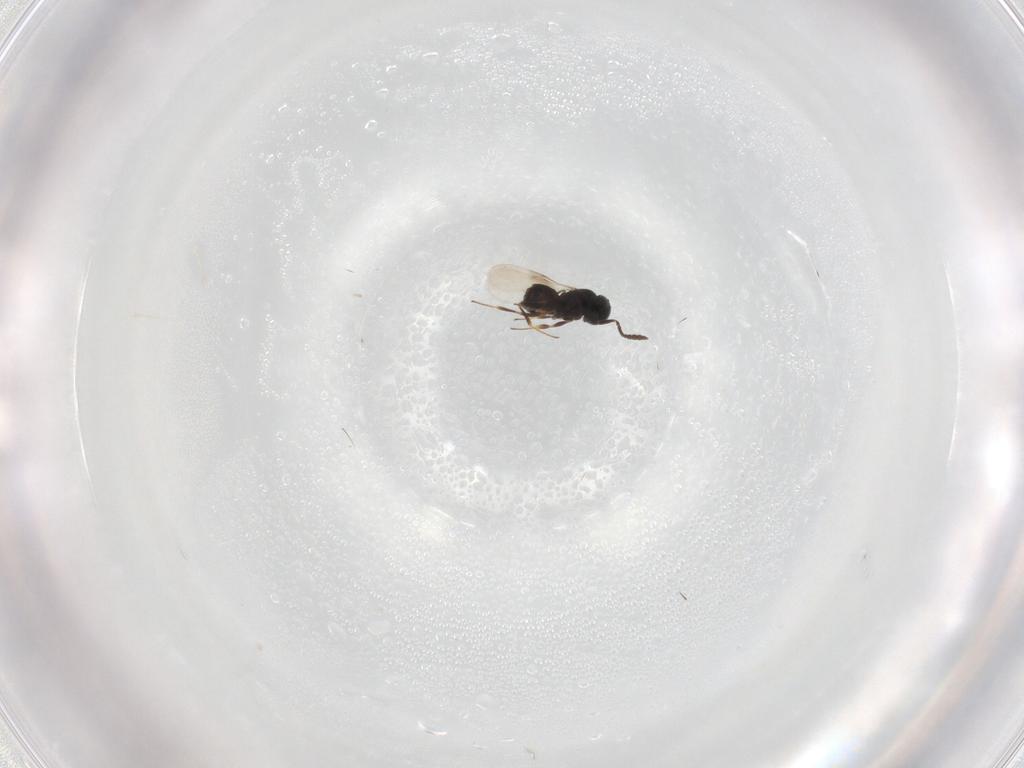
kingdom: Animalia
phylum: Arthropoda
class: Insecta
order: Hymenoptera
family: Scelionidae
